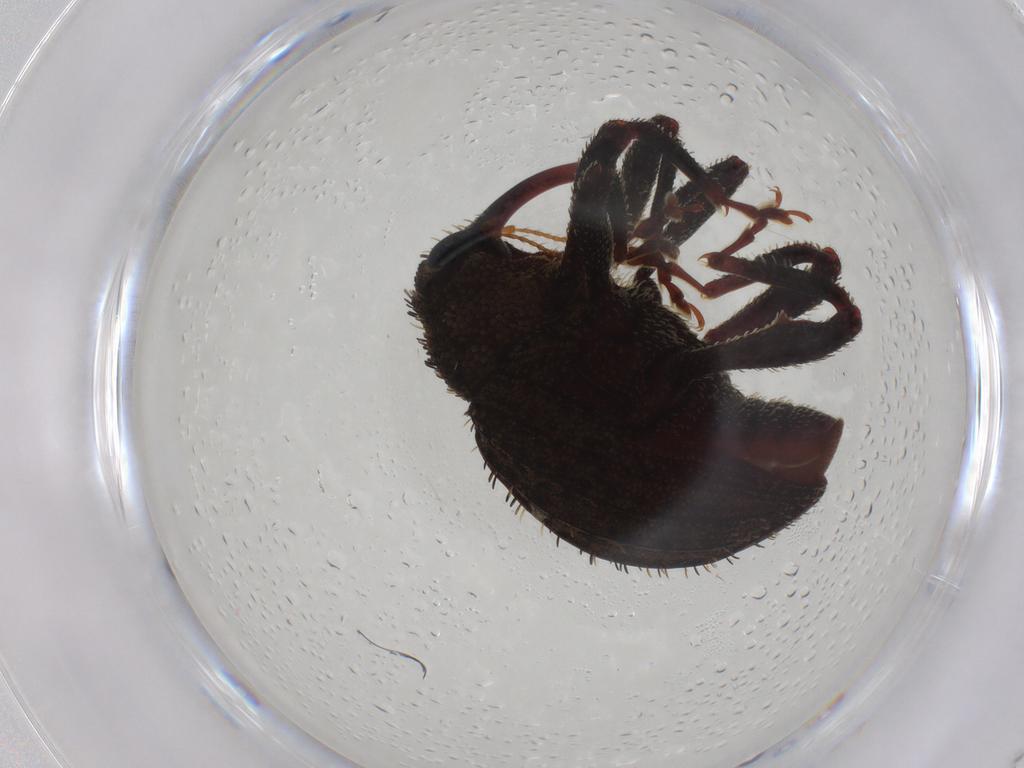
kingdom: Animalia
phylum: Arthropoda
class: Insecta
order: Coleoptera
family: Curculionidae
